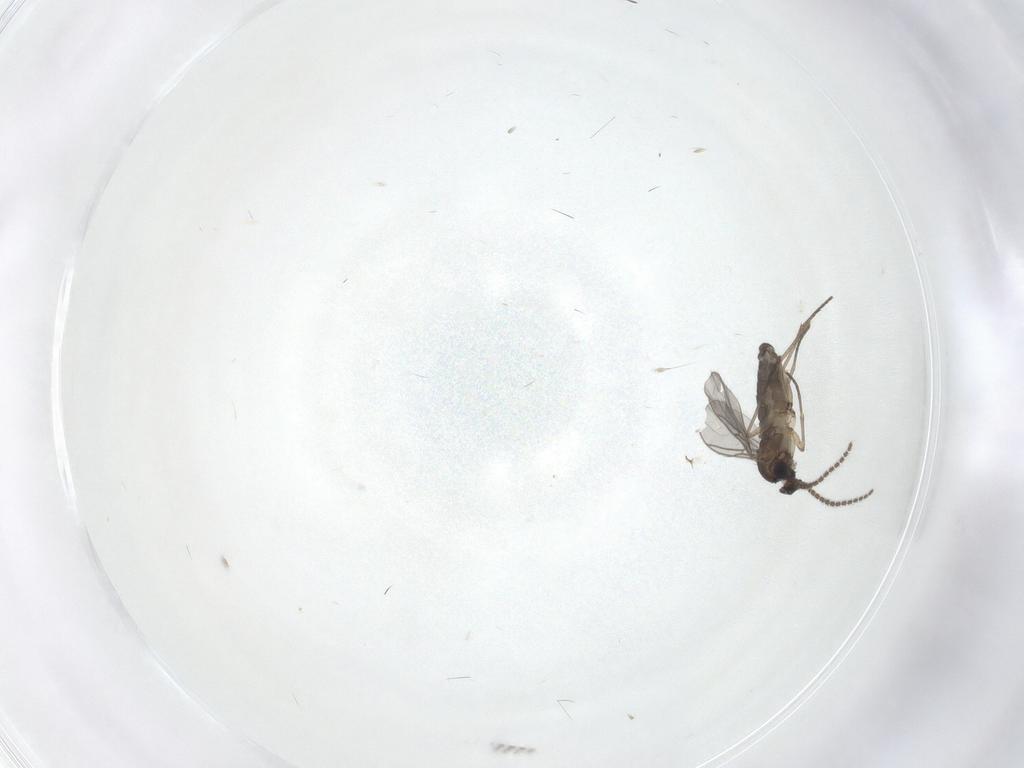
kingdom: Animalia
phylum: Arthropoda
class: Insecta
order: Diptera
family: Sciaridae
